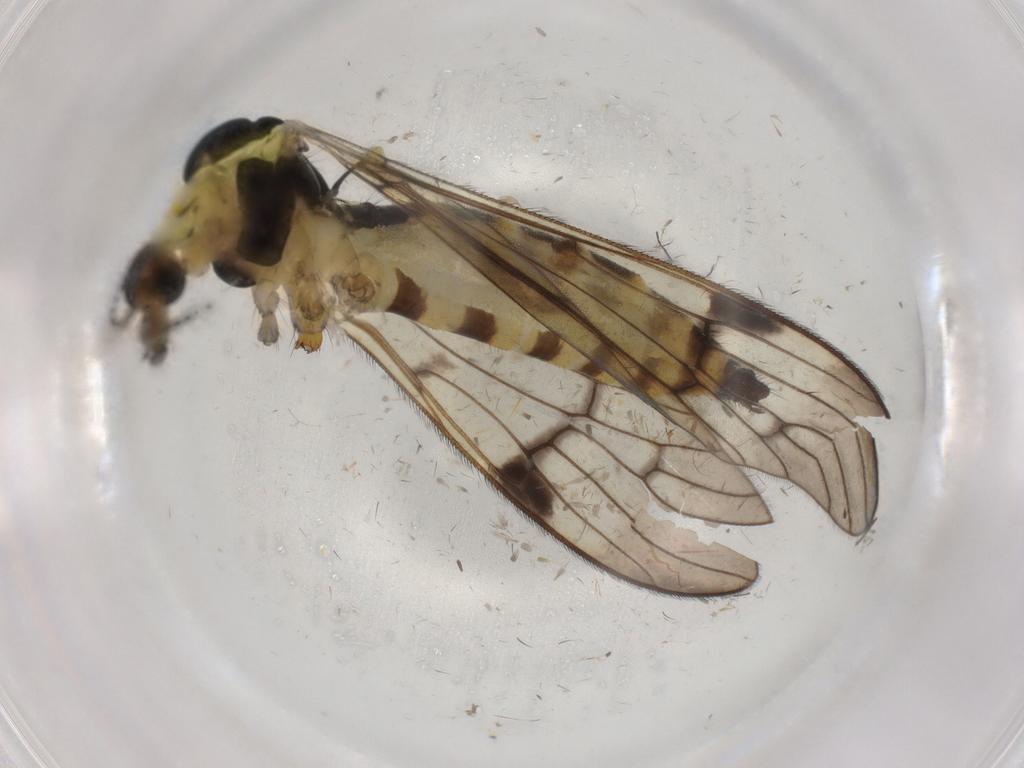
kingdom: Animalia
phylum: Arthropoda
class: Insecta
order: Diptera
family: Limoniidae
